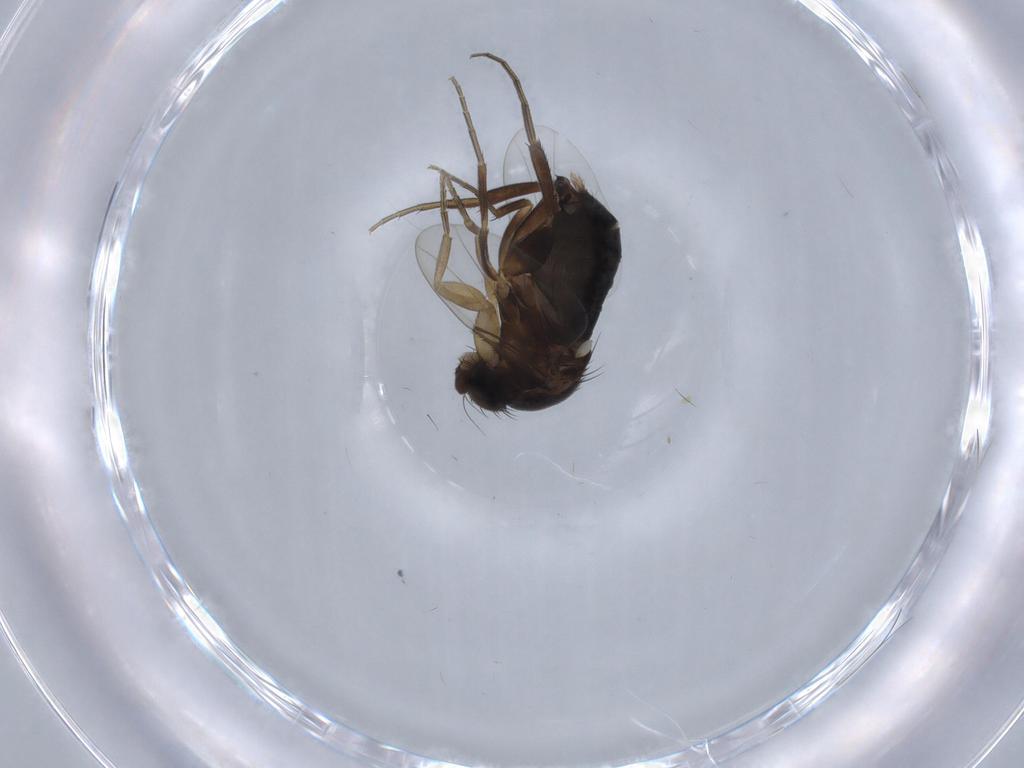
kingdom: Animalia
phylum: Arthropoda
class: Insecta
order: Diptera
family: Phoridae
